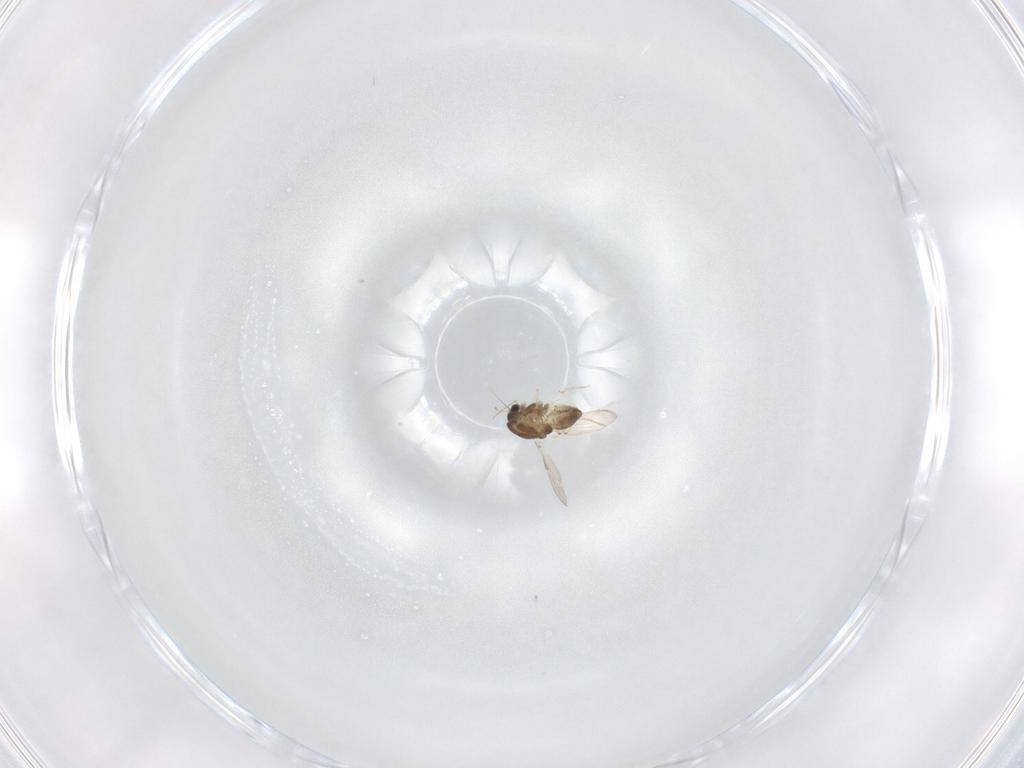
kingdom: Animalia
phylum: Arthropoda
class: Insecta
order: Diptera
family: Ceratopogonidae
